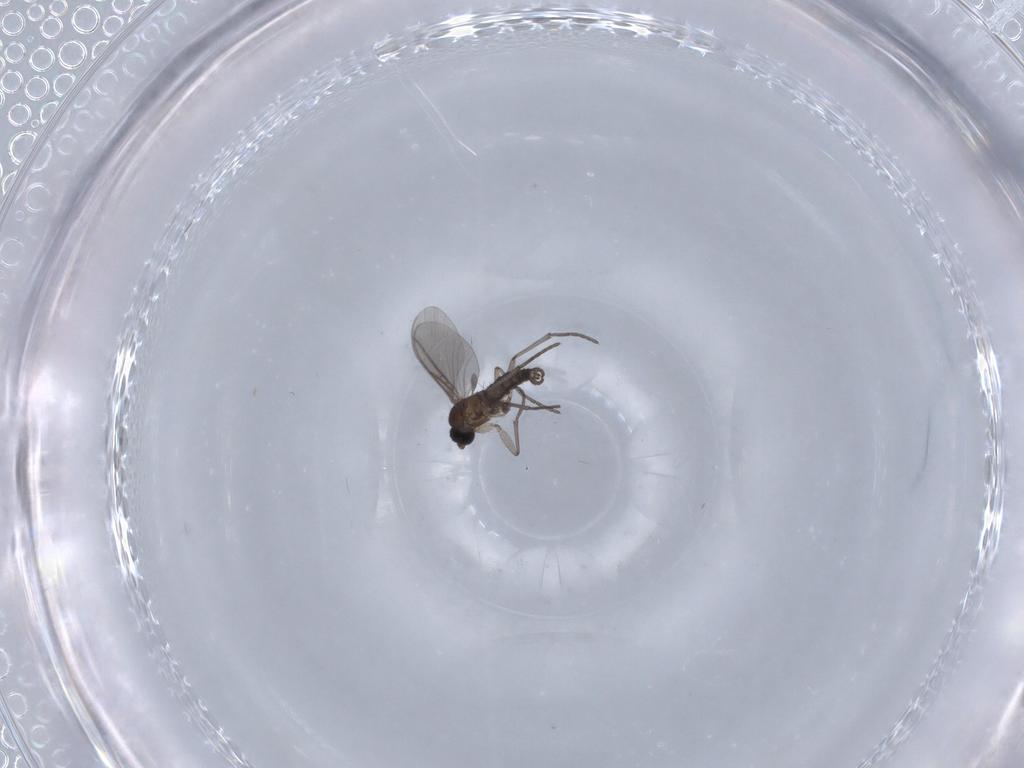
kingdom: Animalia
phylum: Arthropoda
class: Insecta
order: Diptera
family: Phoridae
